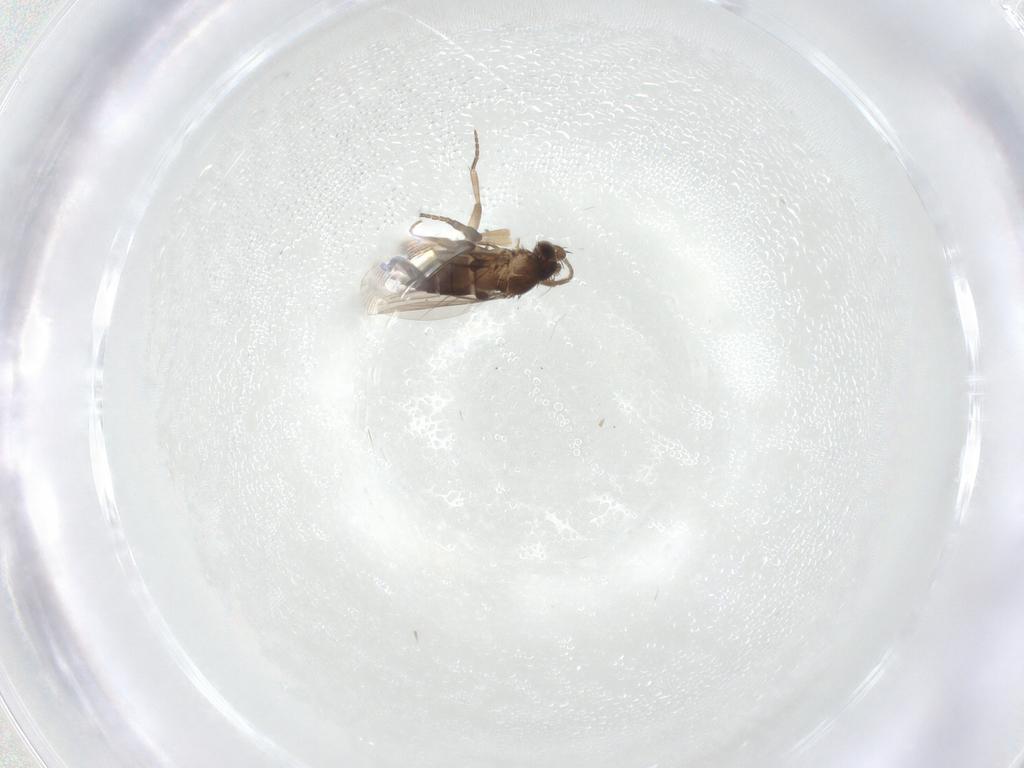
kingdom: Animalia
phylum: Arthropoda
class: Insecta
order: Diptera
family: Phoridae
